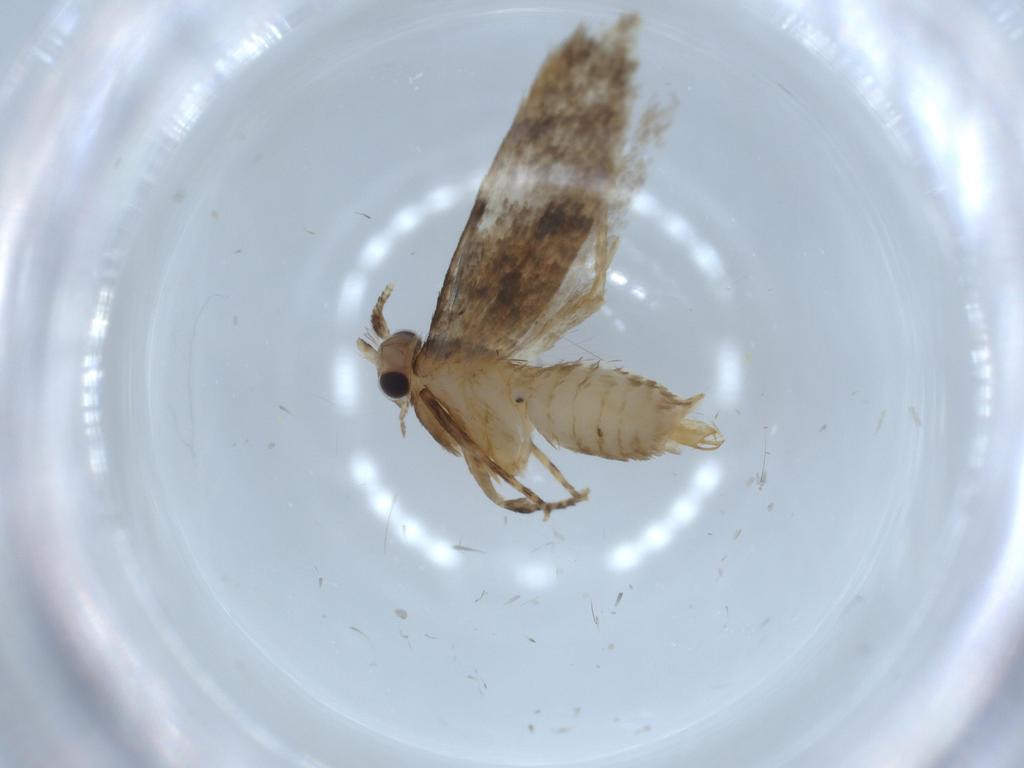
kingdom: Animalia
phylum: Arthropoda
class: Insecta
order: Lepidoptera
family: Tineidae
